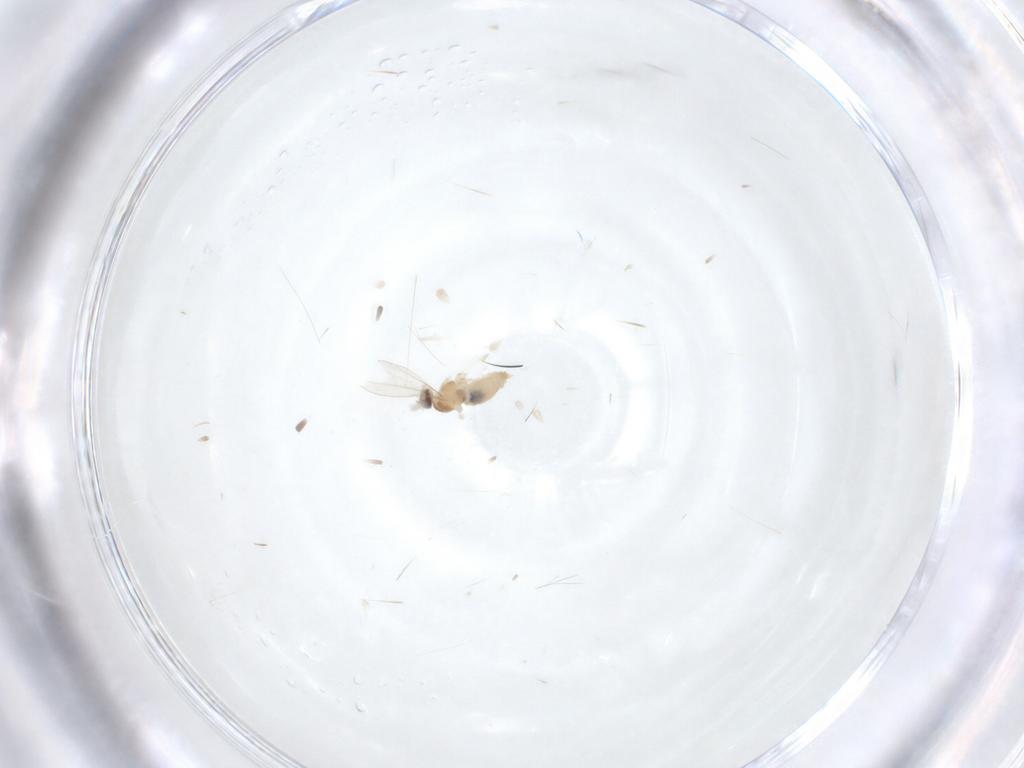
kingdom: Animalia
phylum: Arthropoda
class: Insecta
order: Diptera
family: Cecidomyiidae
